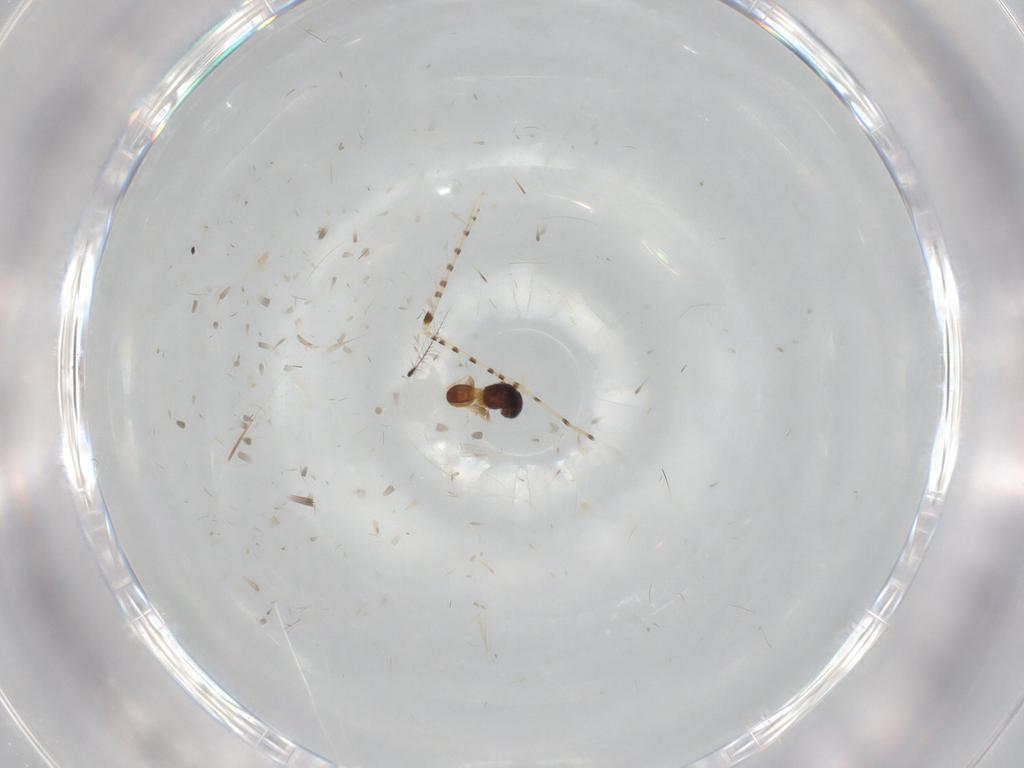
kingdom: Animalia
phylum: Arthropoda
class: Insecta
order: Hymenoptera
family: Scelionidae
